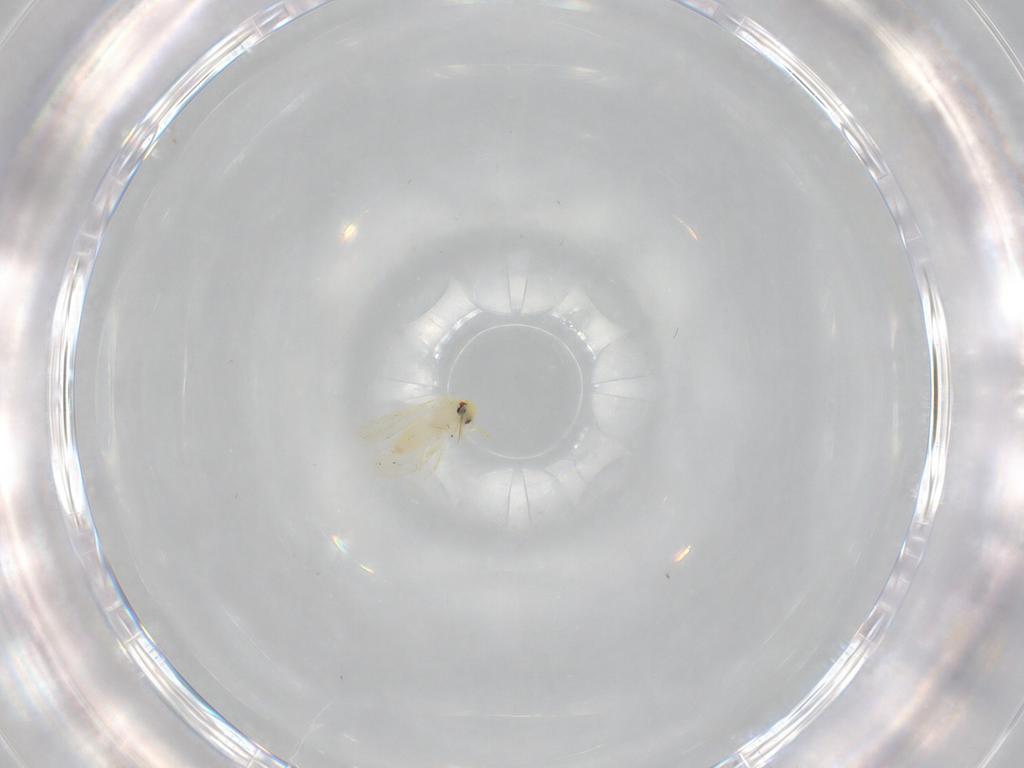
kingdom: Animalia
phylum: Arthropoda
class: Insecta
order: Hemiptera
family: Aleyrodidae
